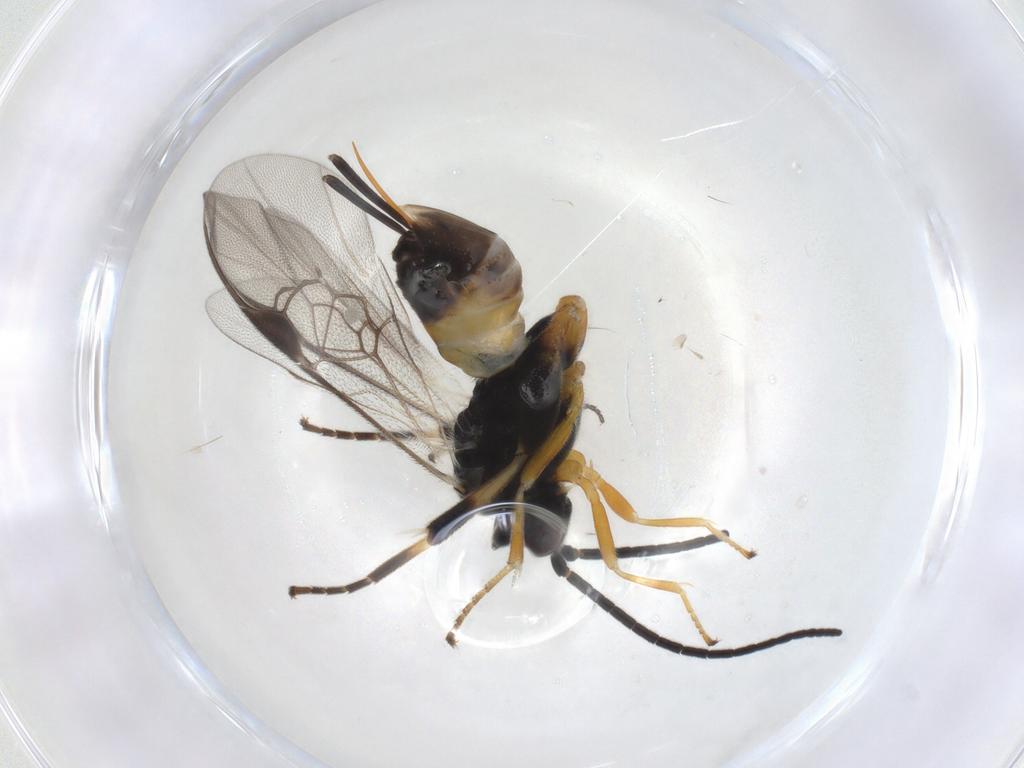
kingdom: Animalia
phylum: Arthropoda
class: Insecta
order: Hymenoptera
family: Braconidae
